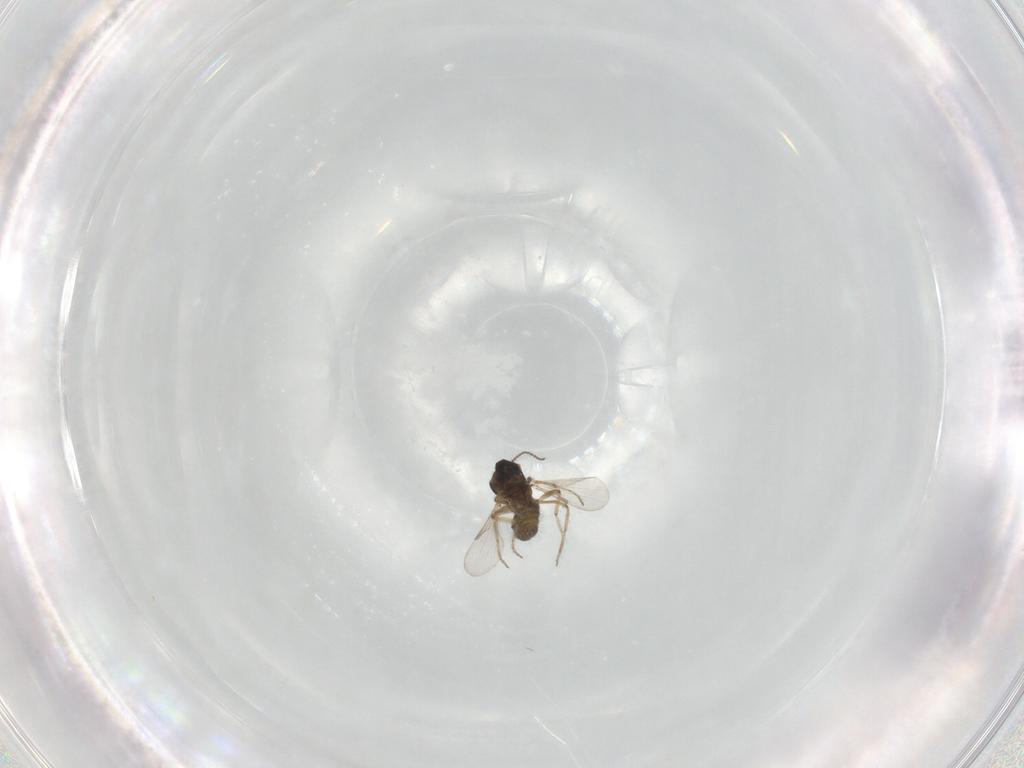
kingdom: Animalia
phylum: Arthropoda
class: Insecta
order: Diptera
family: Ceratopogonidae
